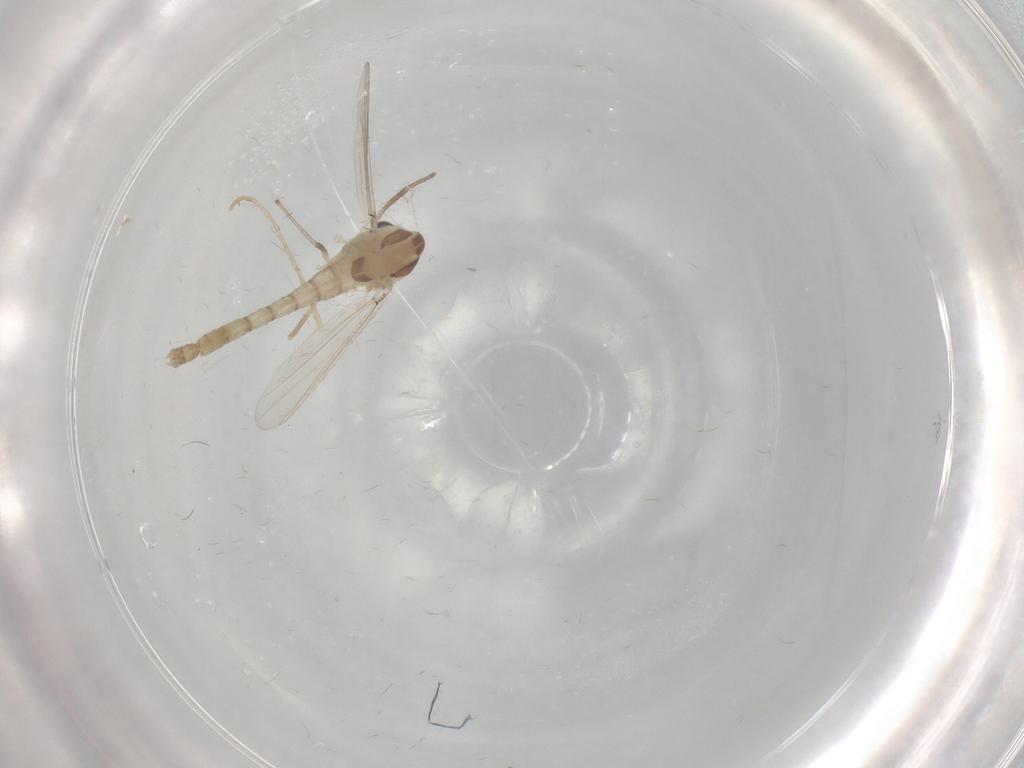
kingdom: Animalia
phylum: Arthropoda
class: Insecta
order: Diptera
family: Chironomidae
